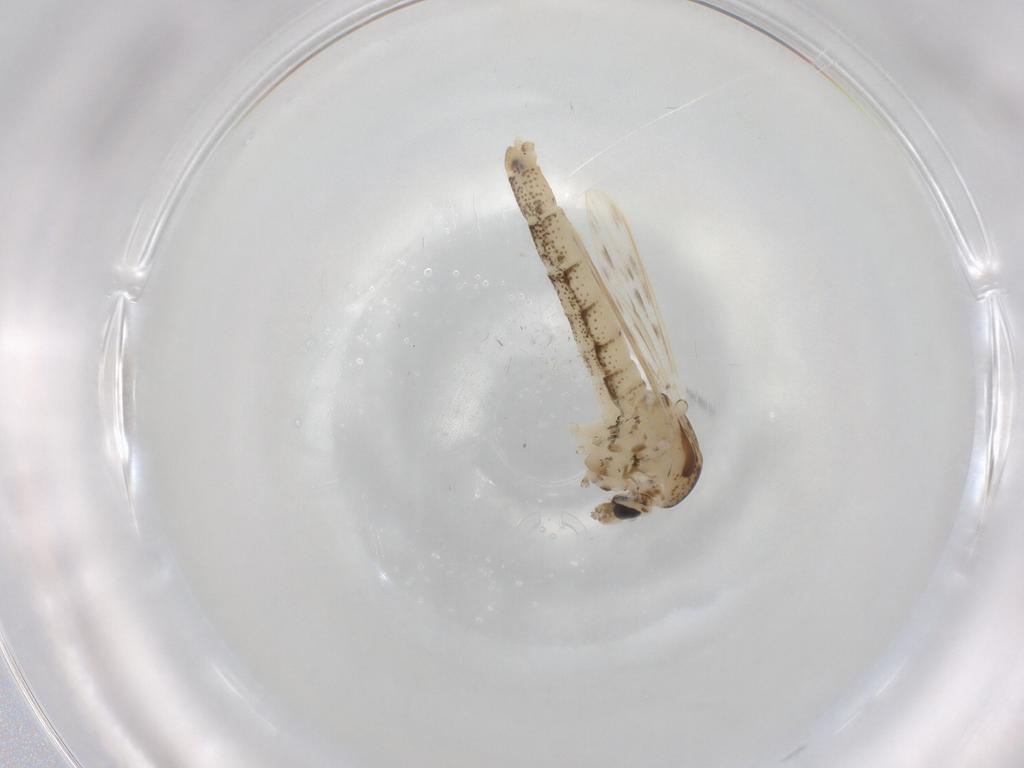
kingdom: Animalia
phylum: Arthropoda
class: Insecta
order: Diptera
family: Chaoboridae
